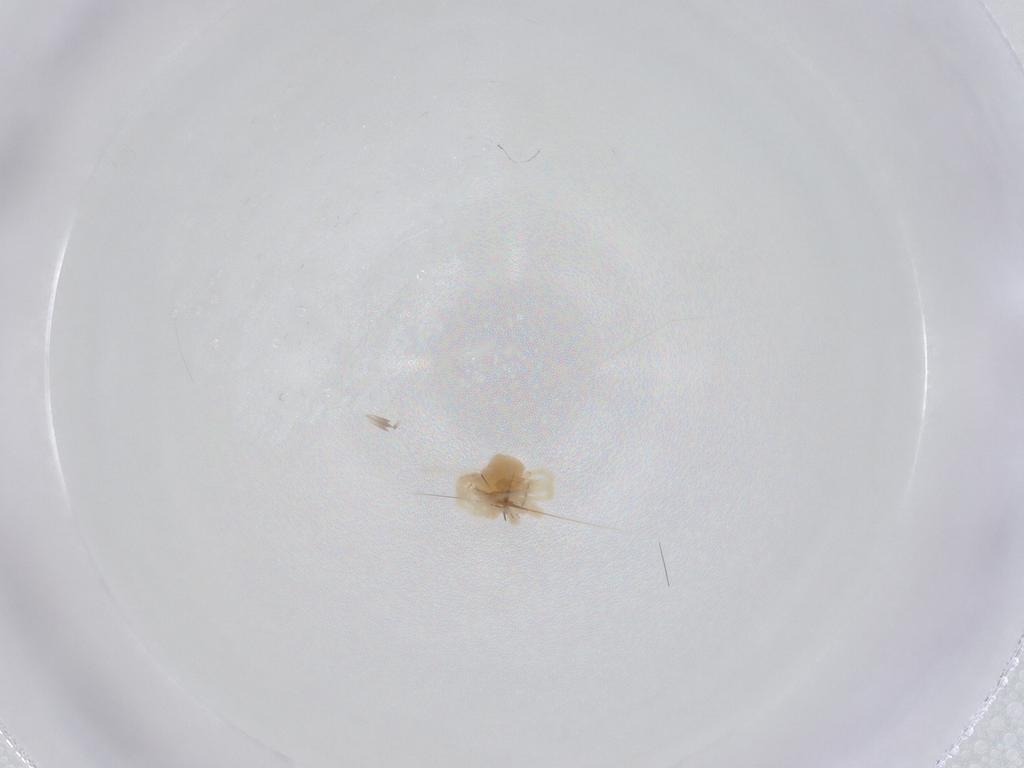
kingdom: Animalia
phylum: Arthropoda
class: Arachnida
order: Trombidiformes
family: Eriophyidae
